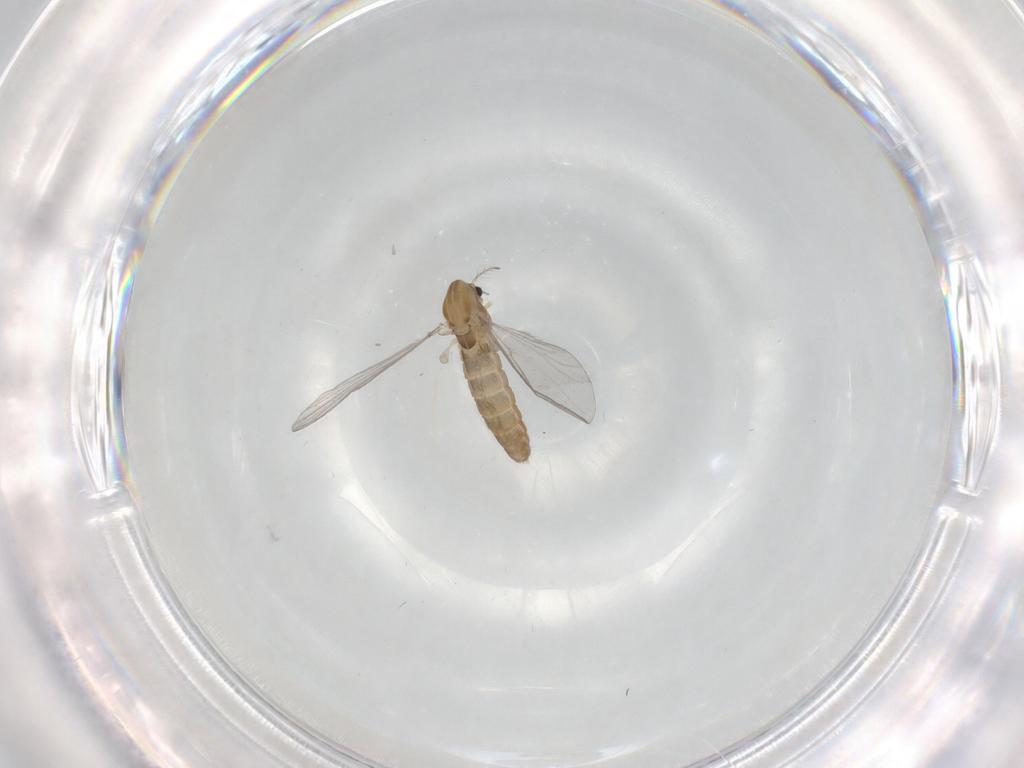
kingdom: Animalia
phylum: Arthropoda
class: Insecta
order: Diptera
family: Chironomidae
